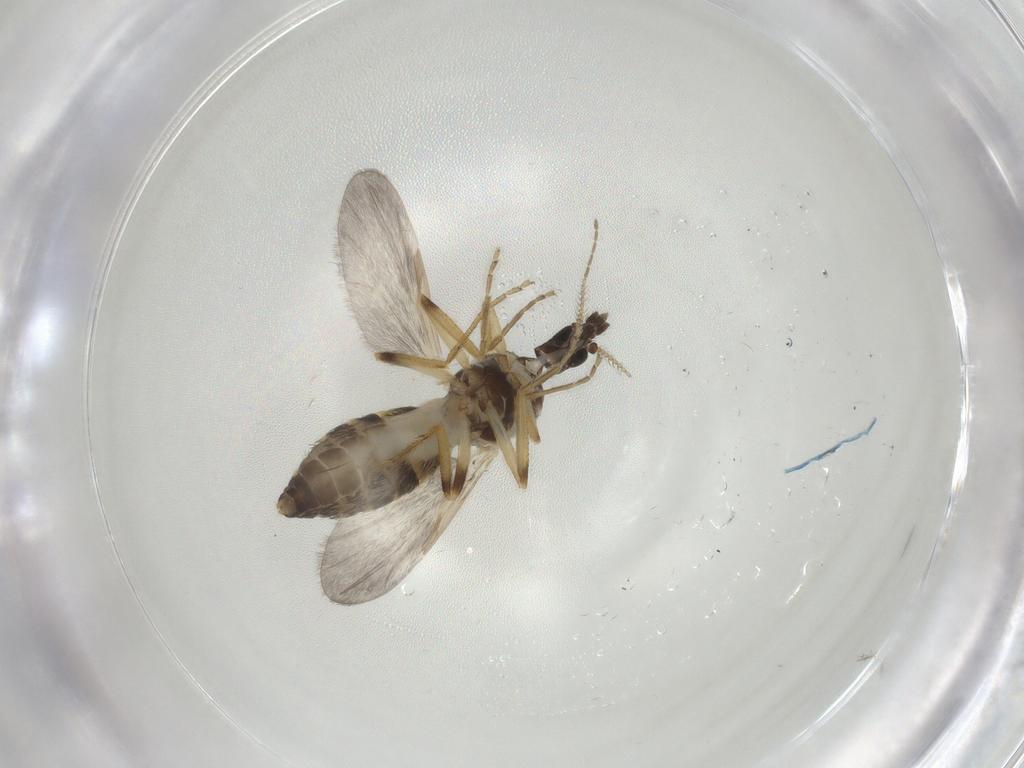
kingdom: Animalia
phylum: Arthropoda
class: Insecta
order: Diptera
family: Ceratopogonidae
